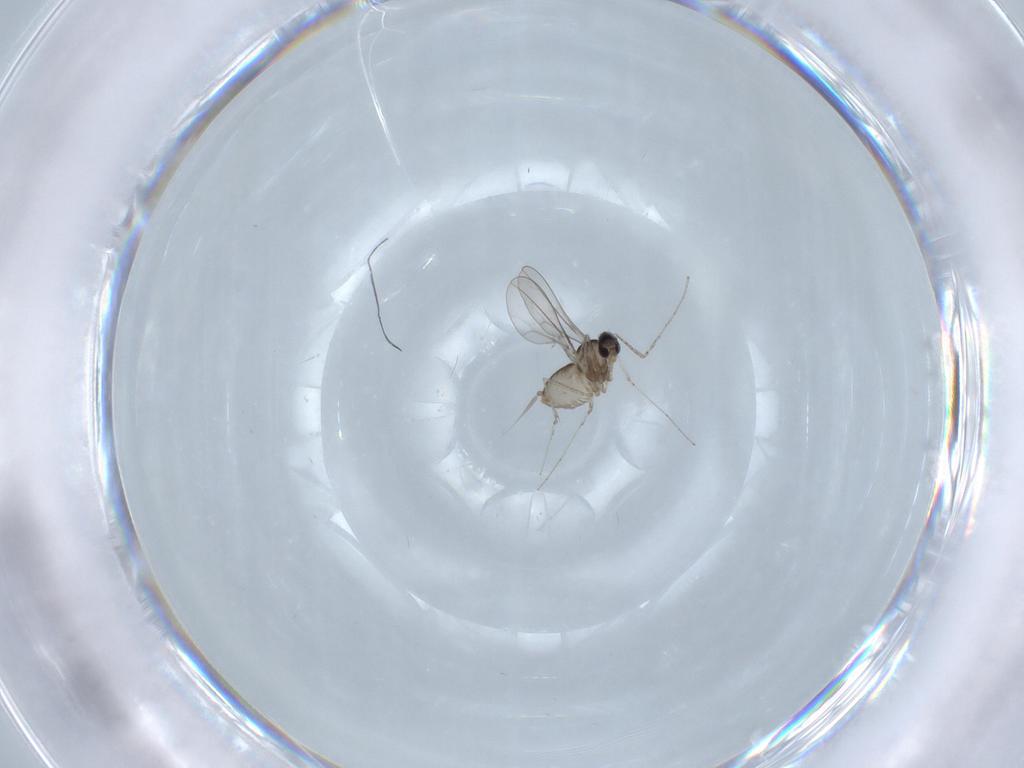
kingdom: Animalia
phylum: Arthropoda
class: Insecta
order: Diptera
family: Cecidomyiidae
